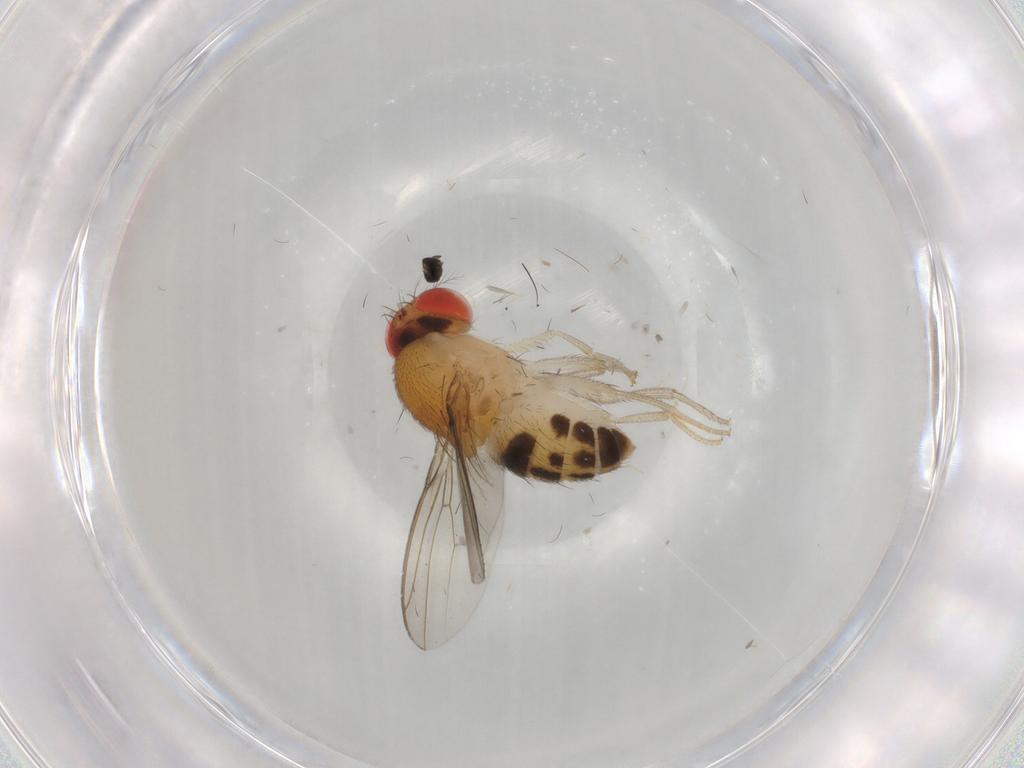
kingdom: Animalia
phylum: Arthropoda
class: Insecta
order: Diptera
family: Drosophilidae
